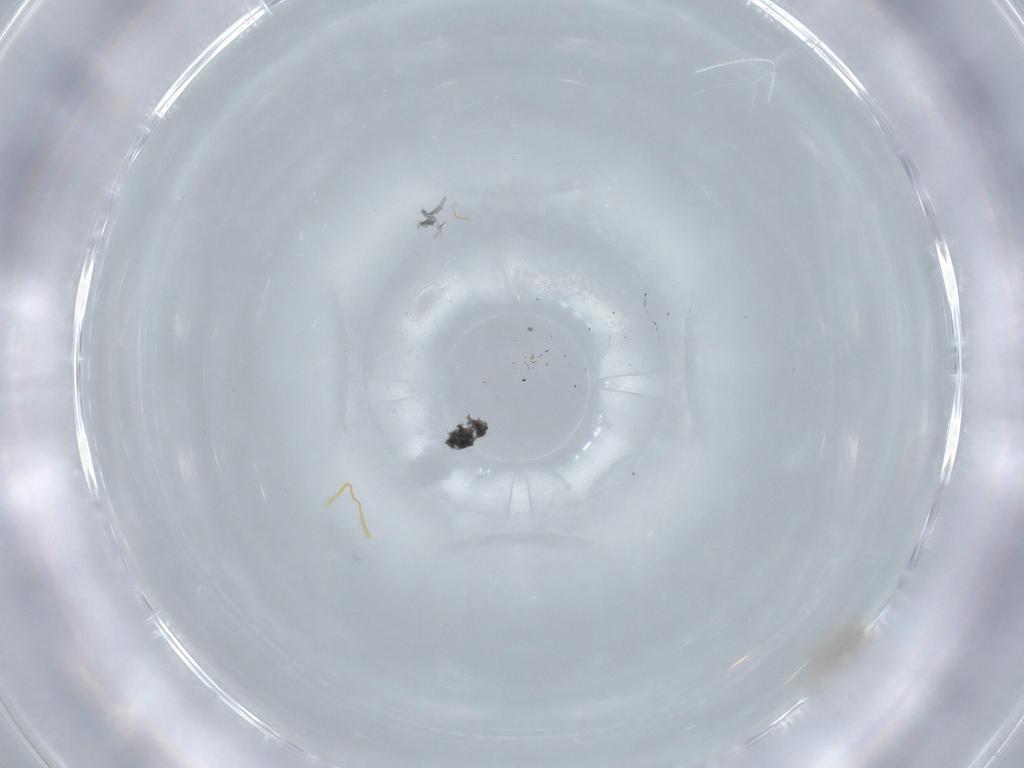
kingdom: Animalia
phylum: Arthropoda
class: Insecta
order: Diptera
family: Cecidomyiidae
